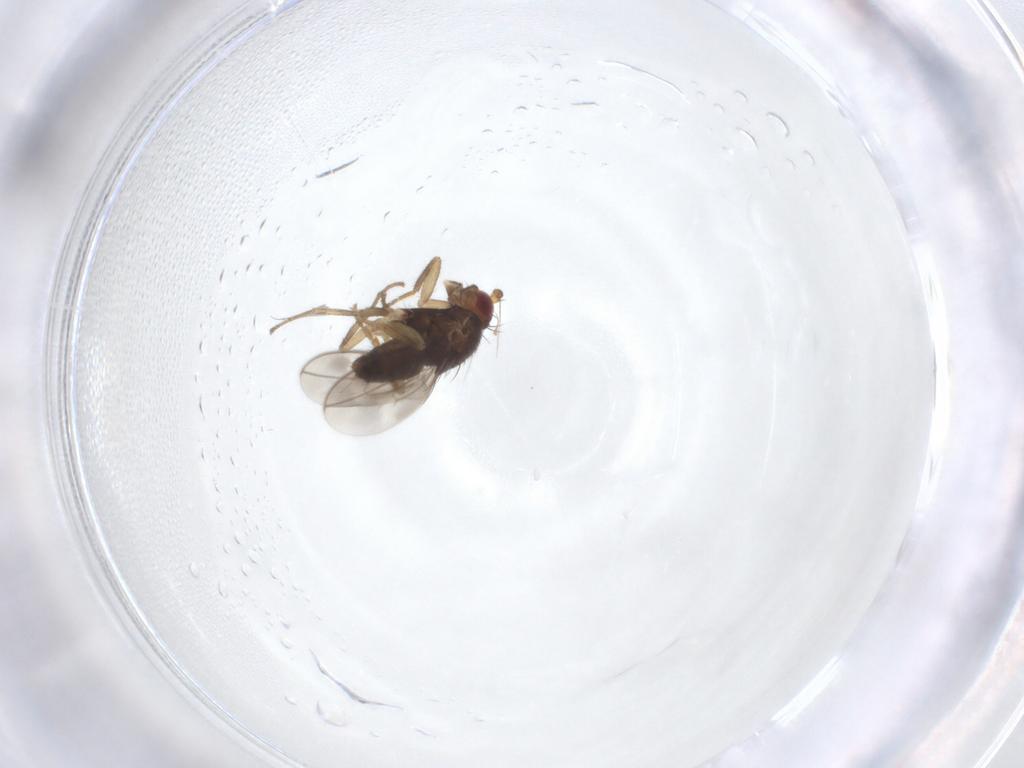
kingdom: Animalia
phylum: Arthropoda
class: Insecta
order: Diptera
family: Sphaeroceridae
